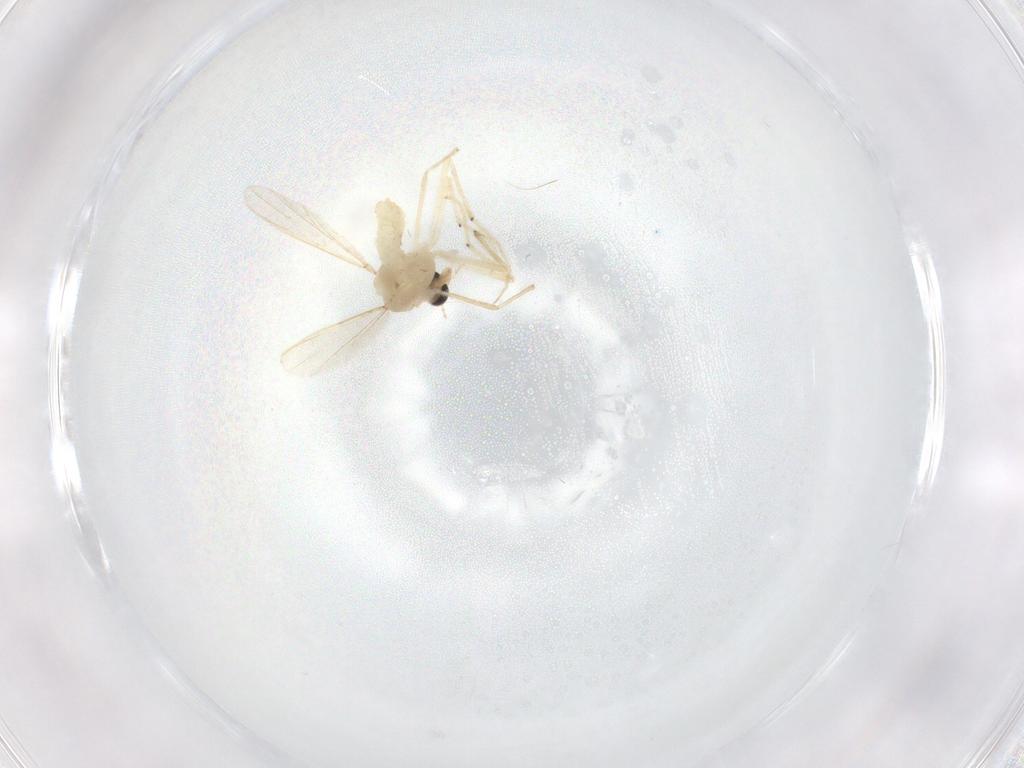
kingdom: Animalia
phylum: Arthropoda
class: Insecta
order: Diptera
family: Chironomidae
